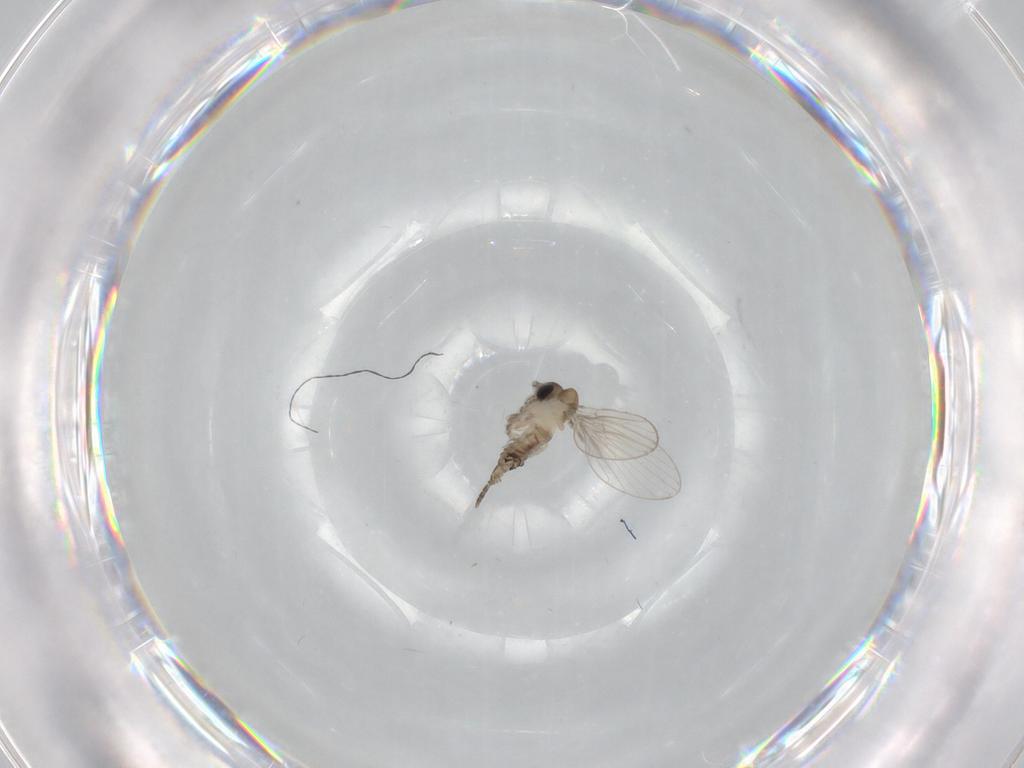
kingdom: Animalia
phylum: Arthropoda
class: Insecta
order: Diptera
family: Psychodidae
